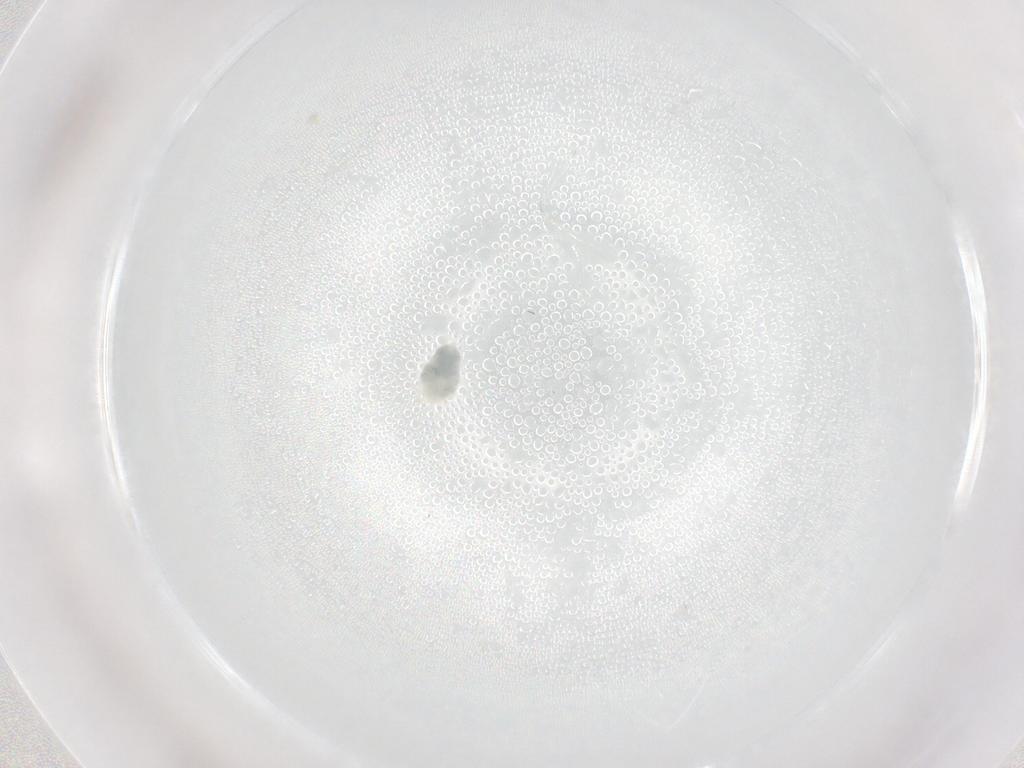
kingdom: Animalia
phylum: Arthropoda
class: Arachnida
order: Trombidiformes
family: Microtrombidiidae
